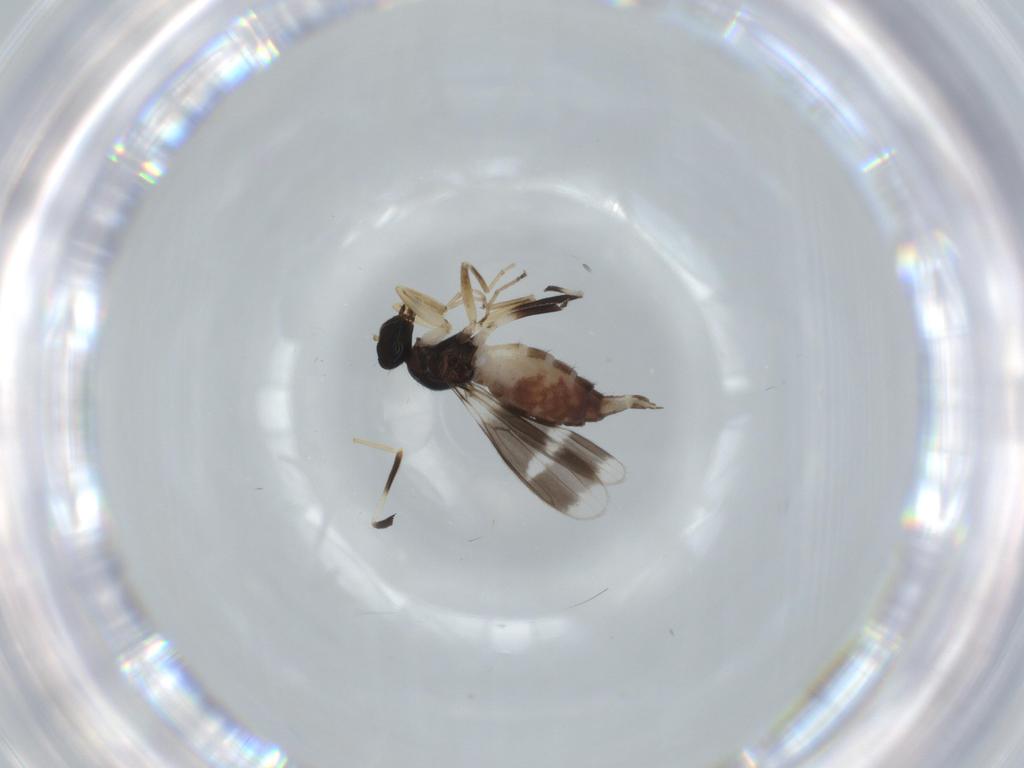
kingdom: Animalia
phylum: Arthropoda
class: Insecta
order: Diptera
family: Hybotidae
